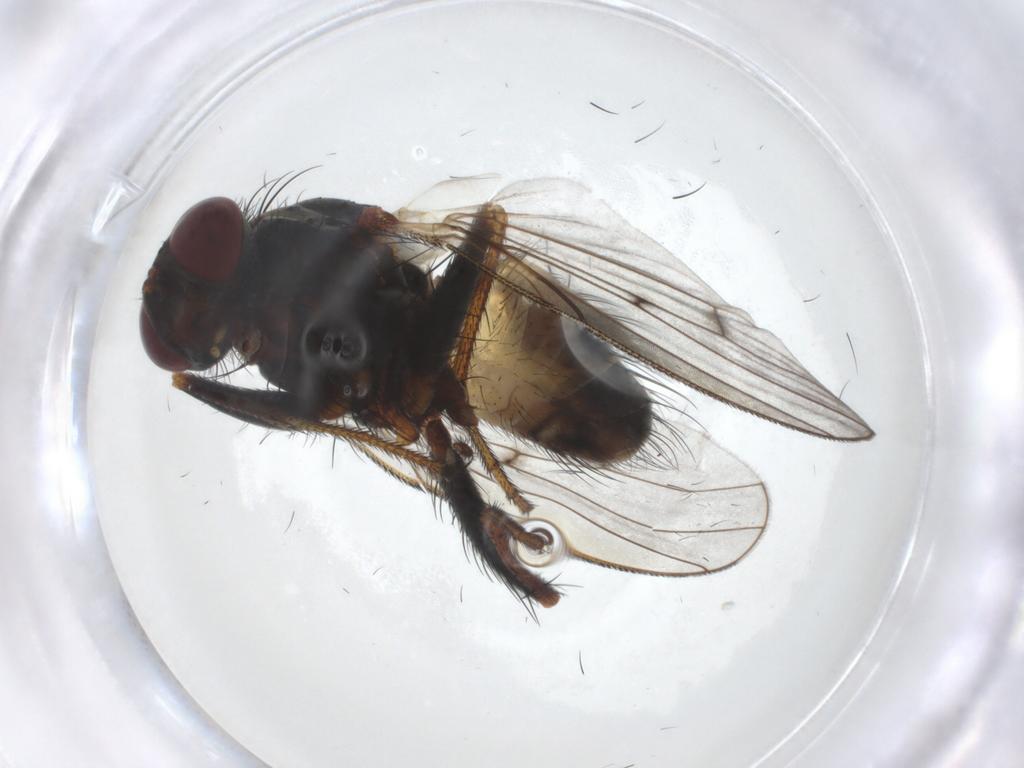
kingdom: Animalia
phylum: Arthropoda
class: Insecta
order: Diptera
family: Muscidae
